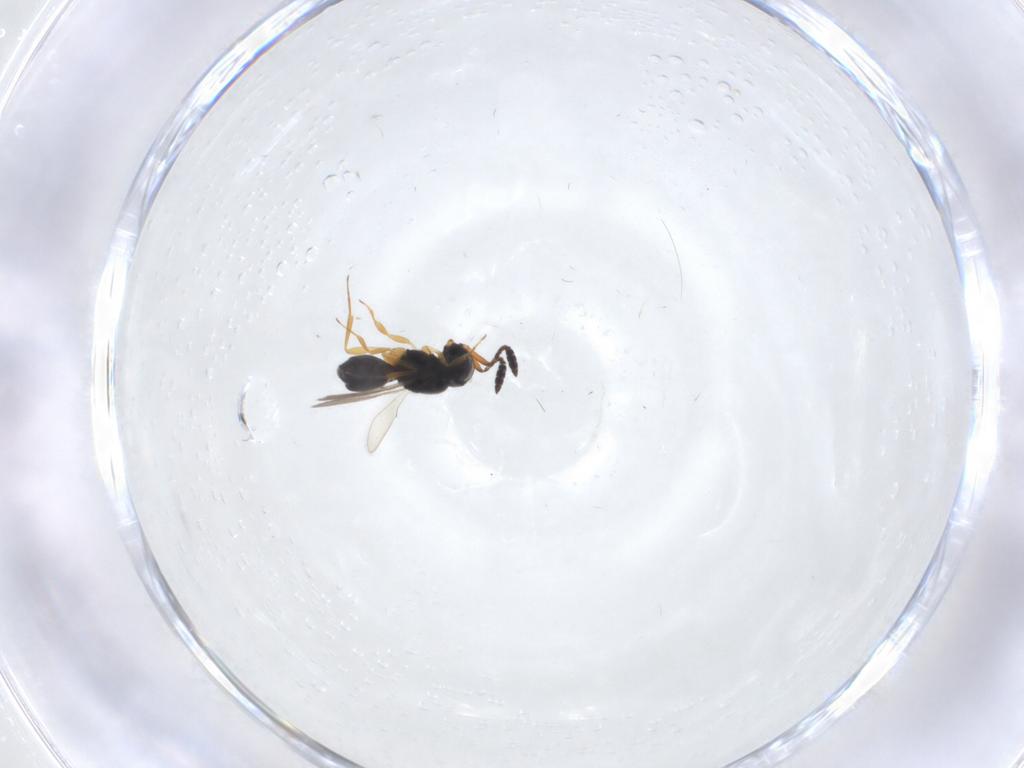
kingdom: Animalia
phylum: Arthropoda
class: Insecta
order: Hymenoptera
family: Scelionidae
